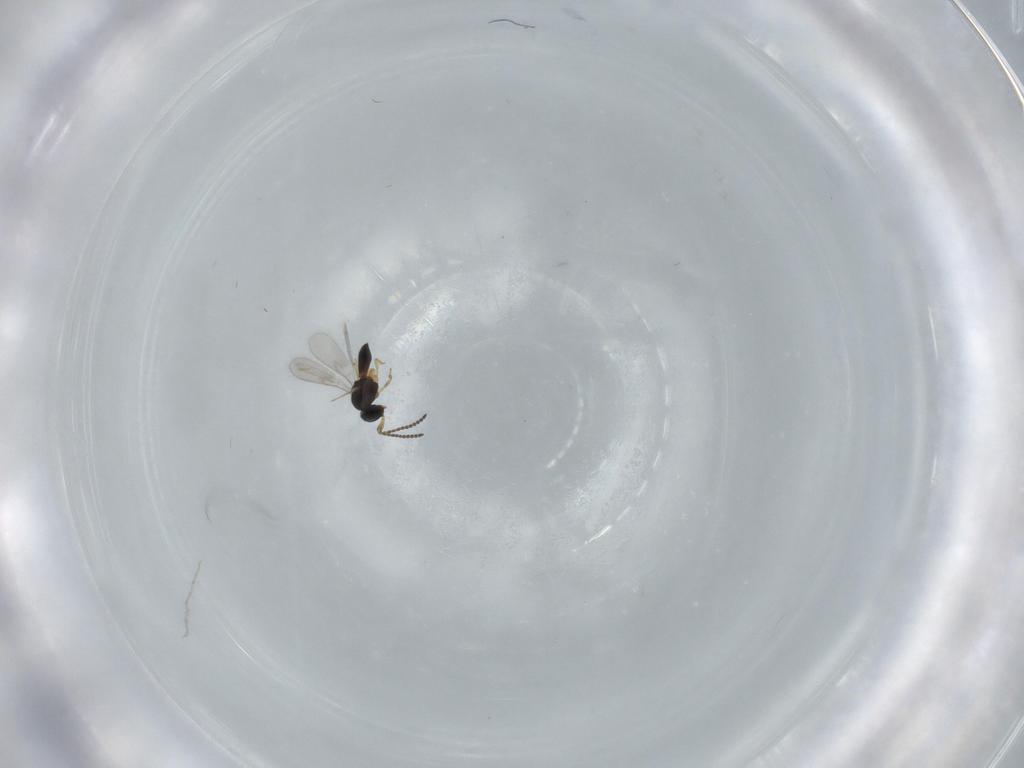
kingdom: Animalia
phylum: Arthropoda
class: Insecta
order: Hymenoptera
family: Scelionidae
